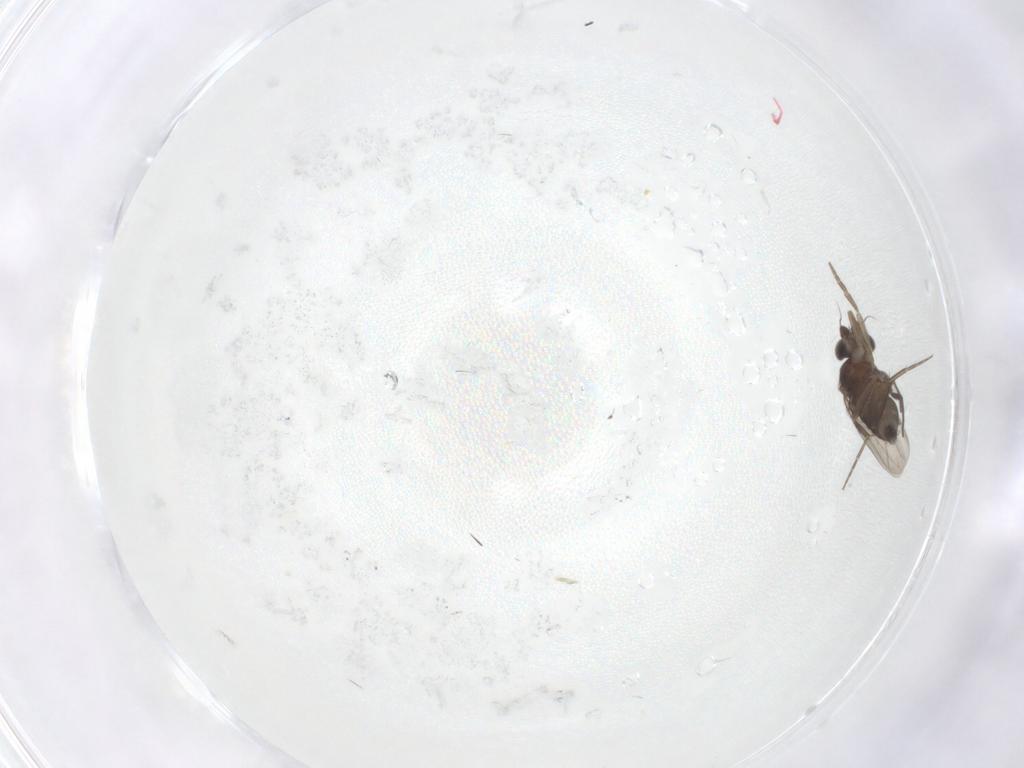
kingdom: Animalia
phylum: Arthropoda
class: Insecta
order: Diptera
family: Phoridae
